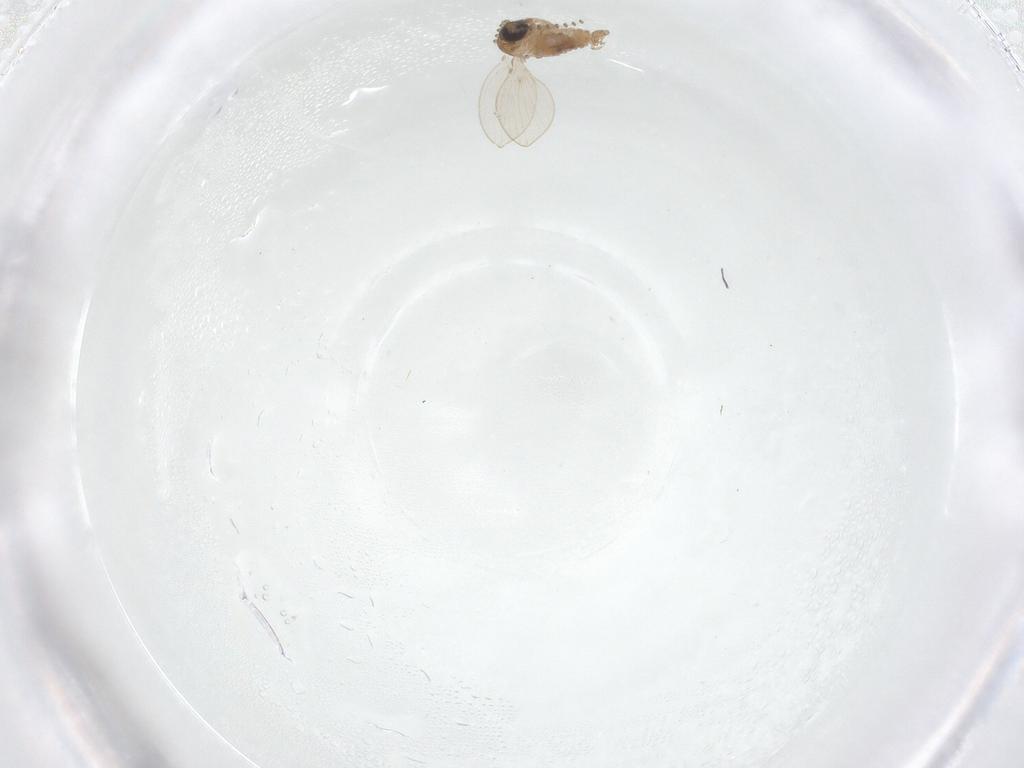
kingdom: Animalia
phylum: Arthropoda
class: Insecta
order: Diptera
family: Psychodidae
